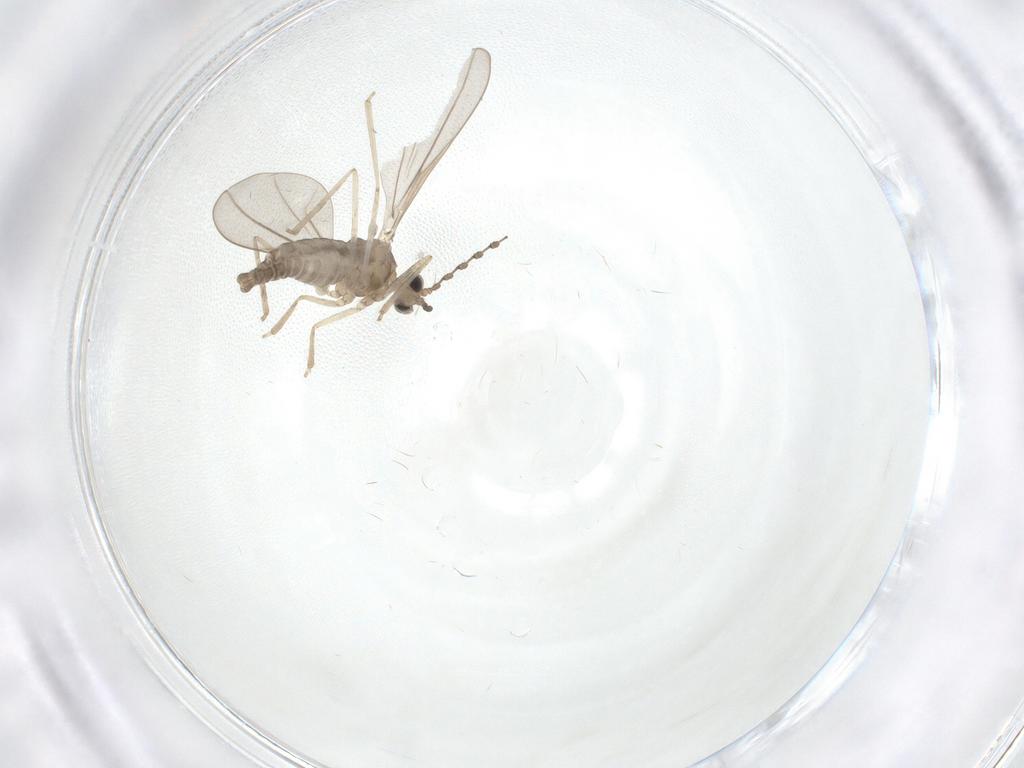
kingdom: Animalia
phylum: Arthropoda
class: Insecta
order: Diptera
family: Cecidomyiidae
